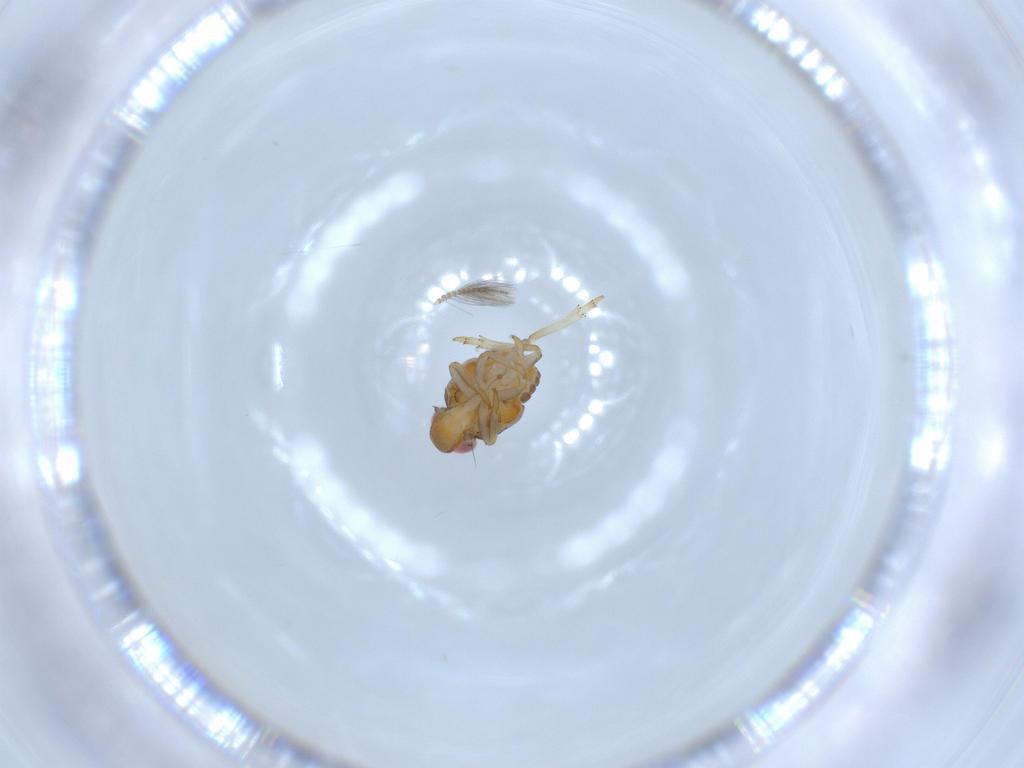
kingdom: Animalia
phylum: Arthropoda
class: Insecta
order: Hemiptera
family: Issidae
